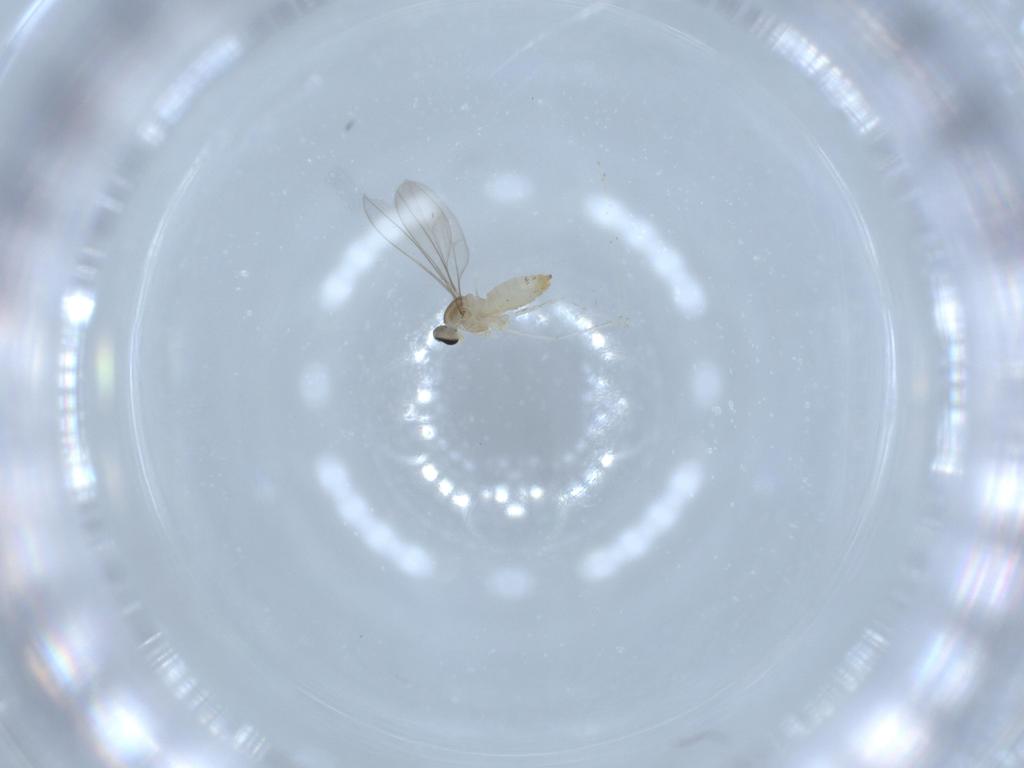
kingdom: Animalia
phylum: Arthropoda
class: Insecta
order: Diptera
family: Cecidomyiidae
